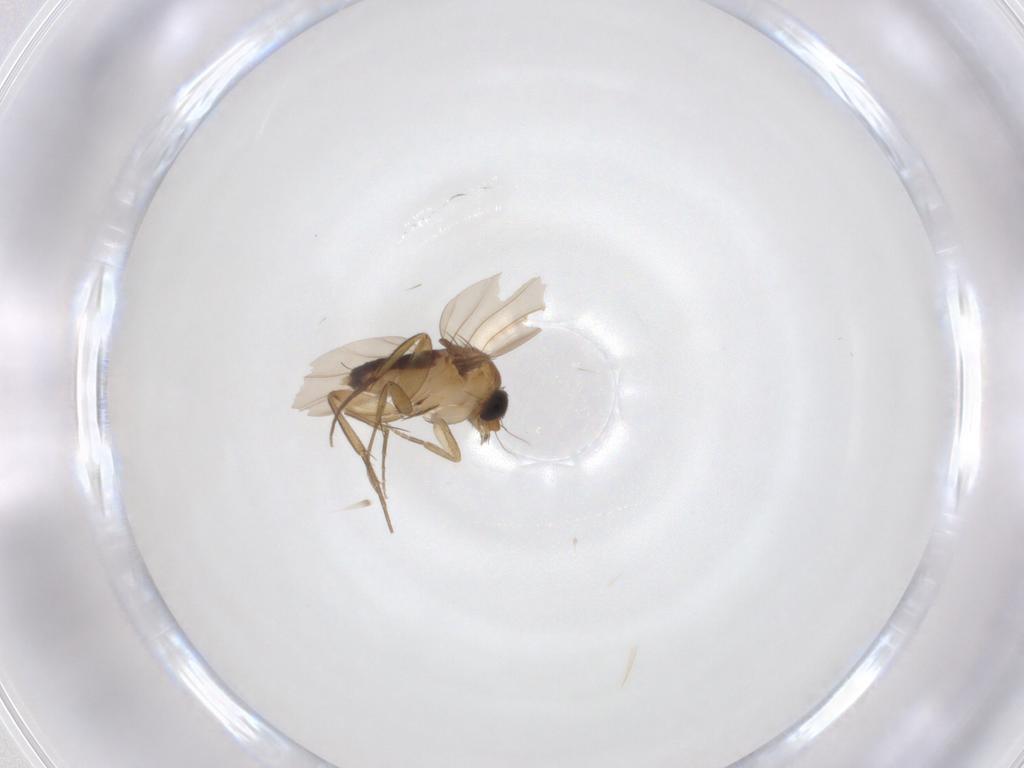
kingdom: Animalia
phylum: Arthropoda
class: Insecta
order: Diptera
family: Phoridae
